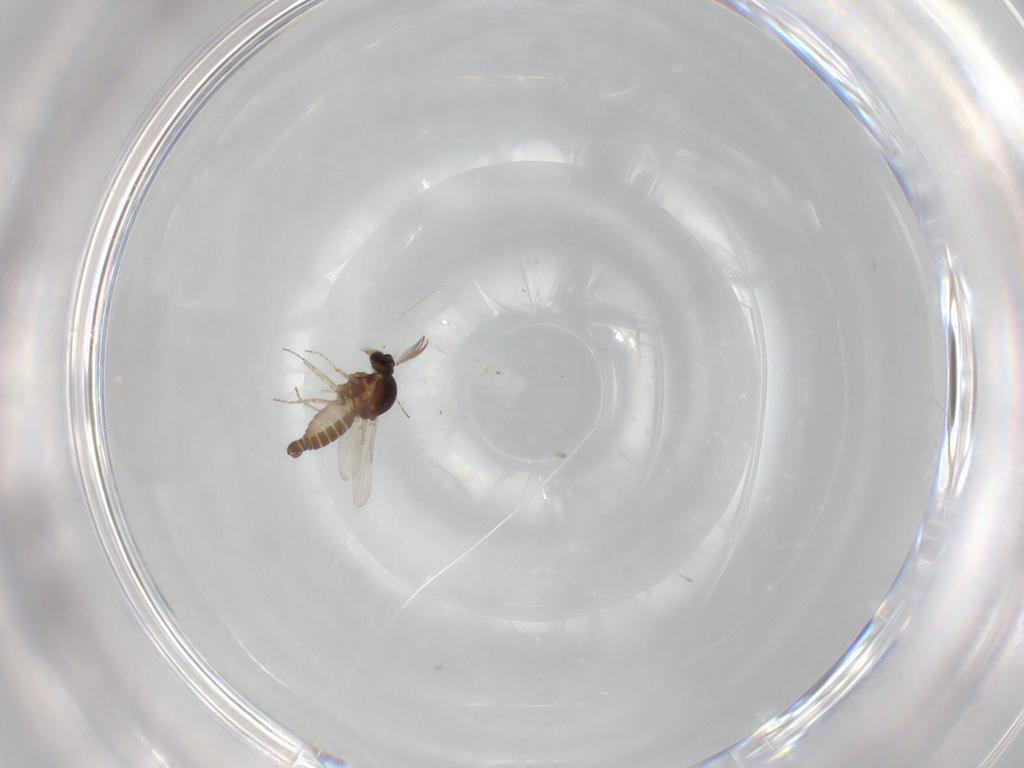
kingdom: Animalia
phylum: Arthropoda
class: Insecta
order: Diptera
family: Ceratopogonidae
